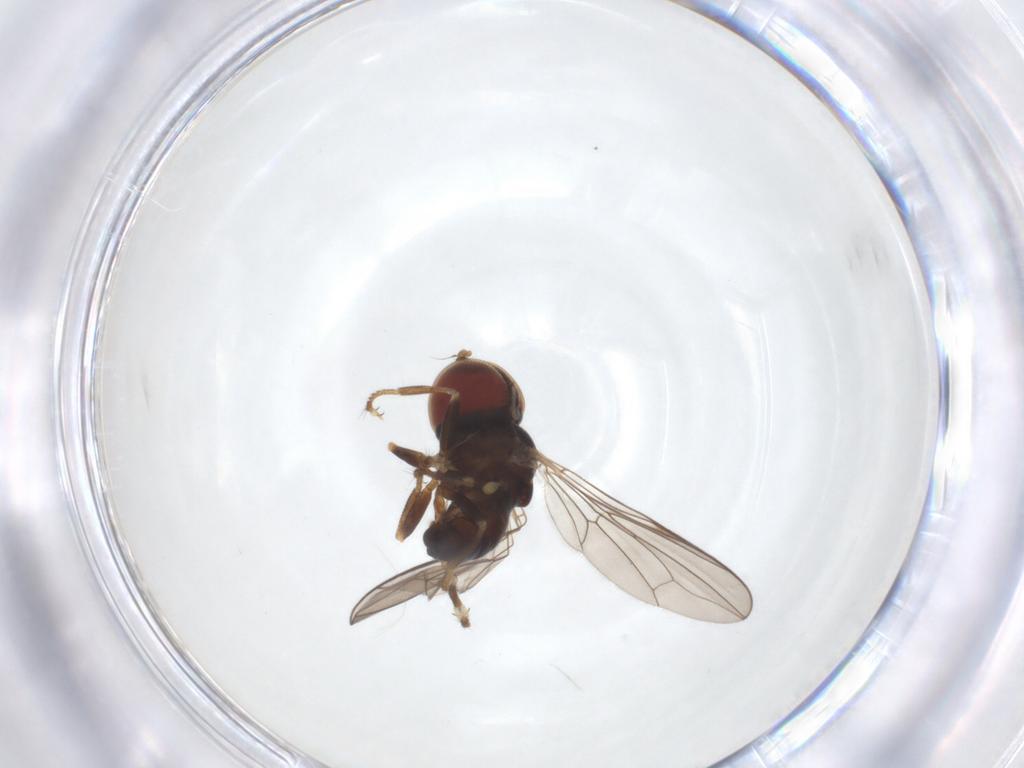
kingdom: Animalia
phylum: Arthropoda
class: Insecta
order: Diptera
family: Pipunculidae
